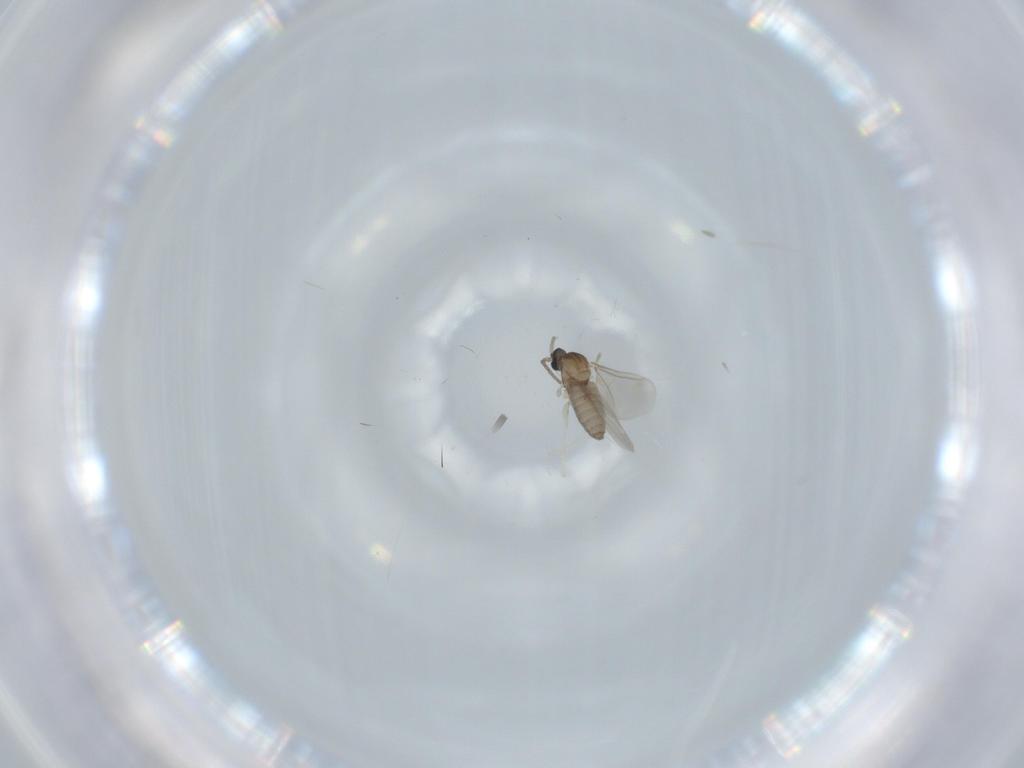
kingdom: Animalia
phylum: Arthropoda
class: Insecta
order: Diptera
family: Cecidomyiidae
